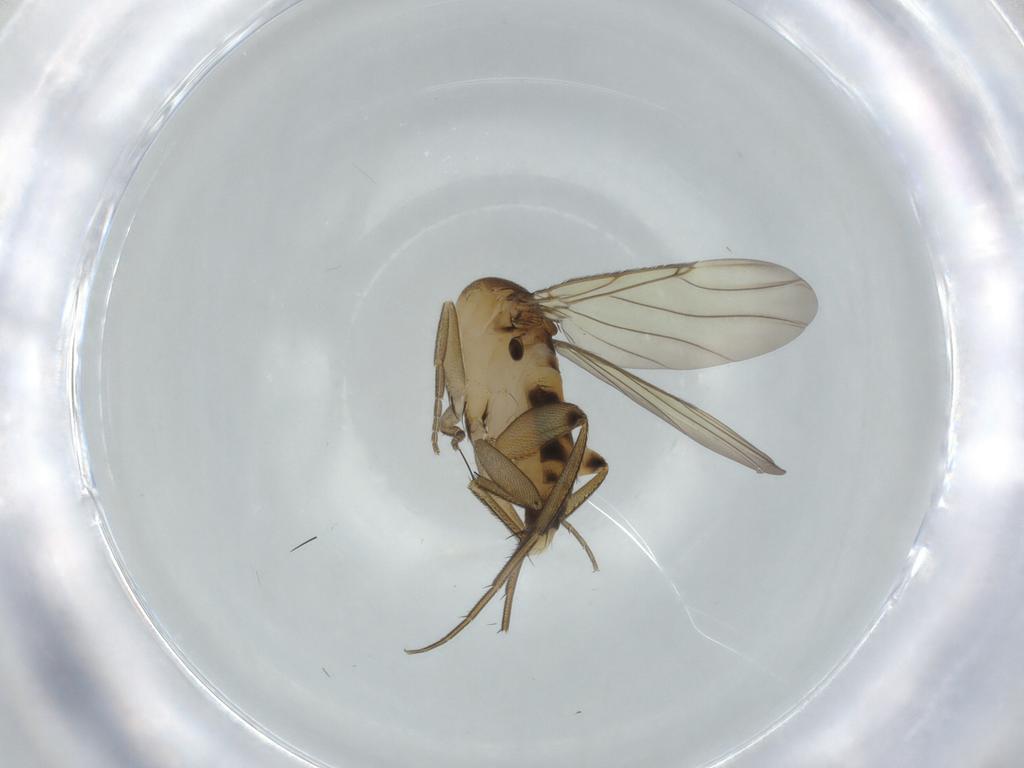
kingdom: Animalia
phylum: Arthropoda
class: Insecta
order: Diptera
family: Phoridae
